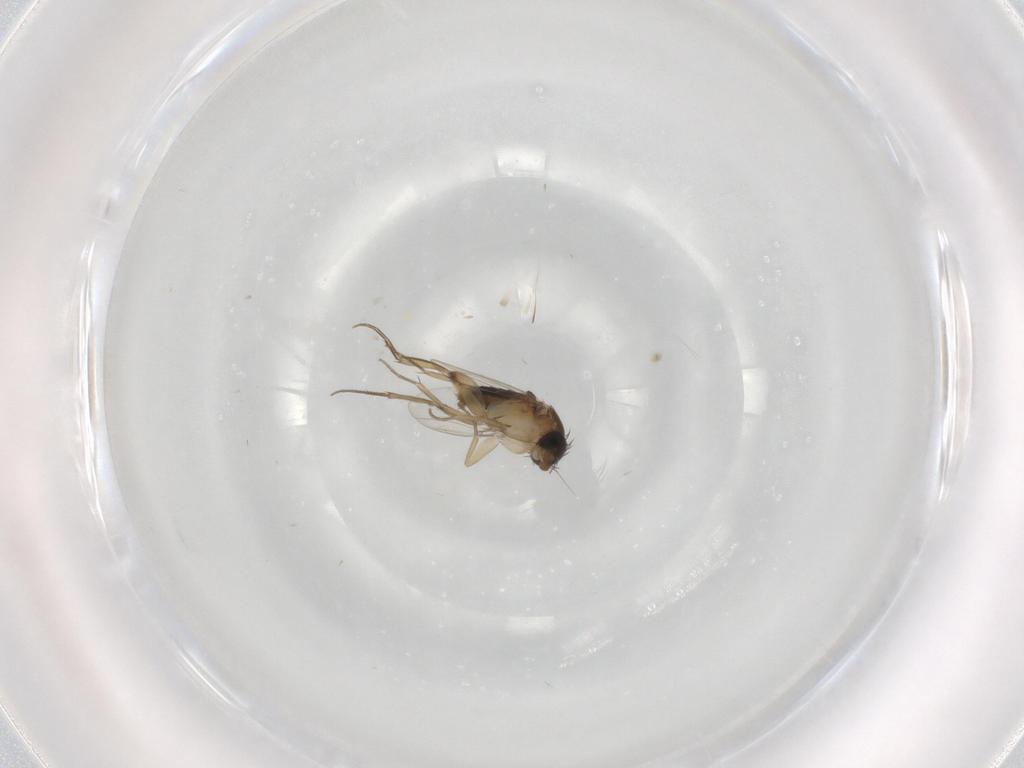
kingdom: Animalia
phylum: Arthropoda
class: Insecta
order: Diptera
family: Phoridae
